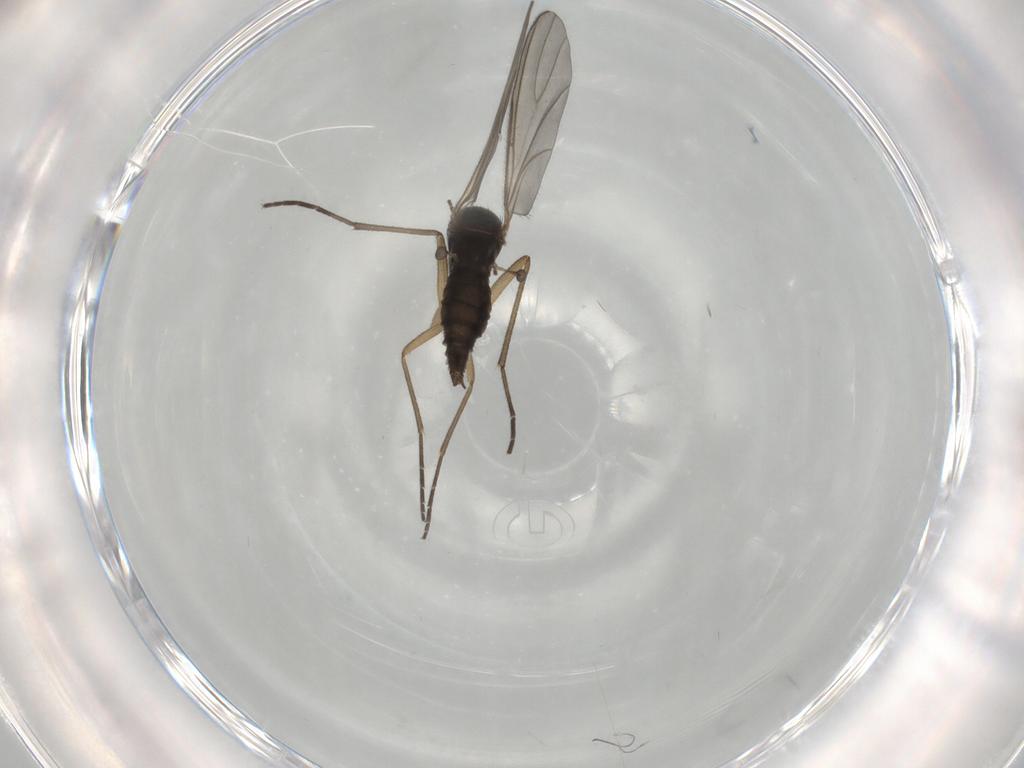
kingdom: Animalia
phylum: Arthropoda
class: Insecta
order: Diptera
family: Sciaridae
